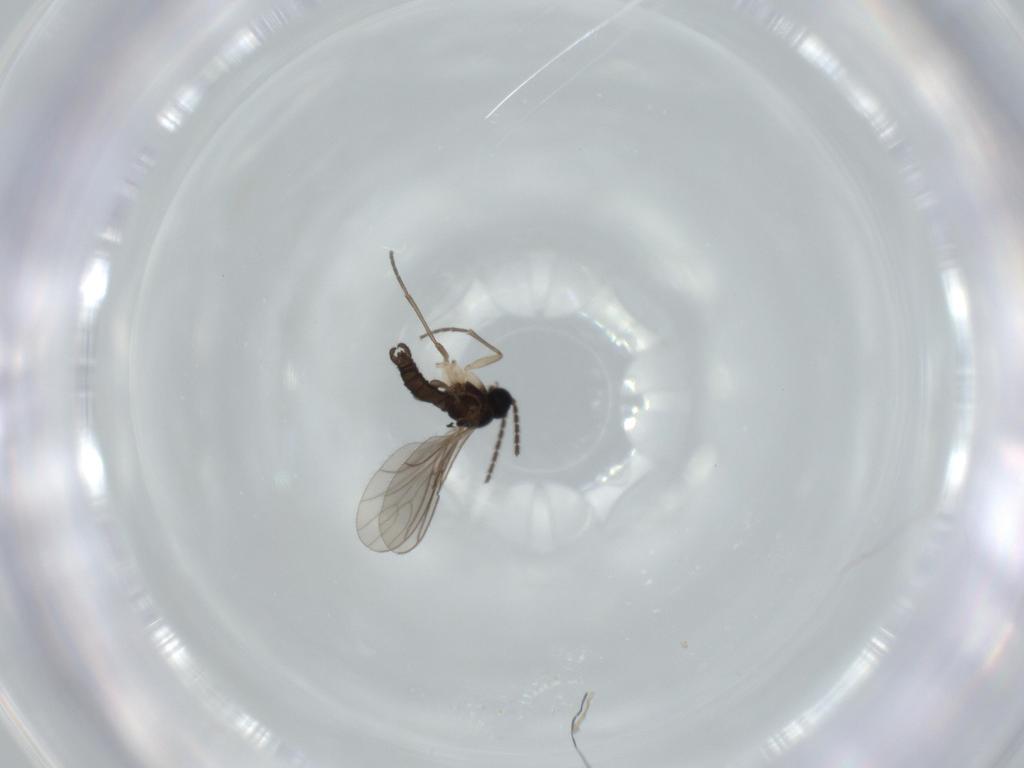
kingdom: Animalia
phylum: Arthropoda
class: Insecta
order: Diptera
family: Sciaridae
